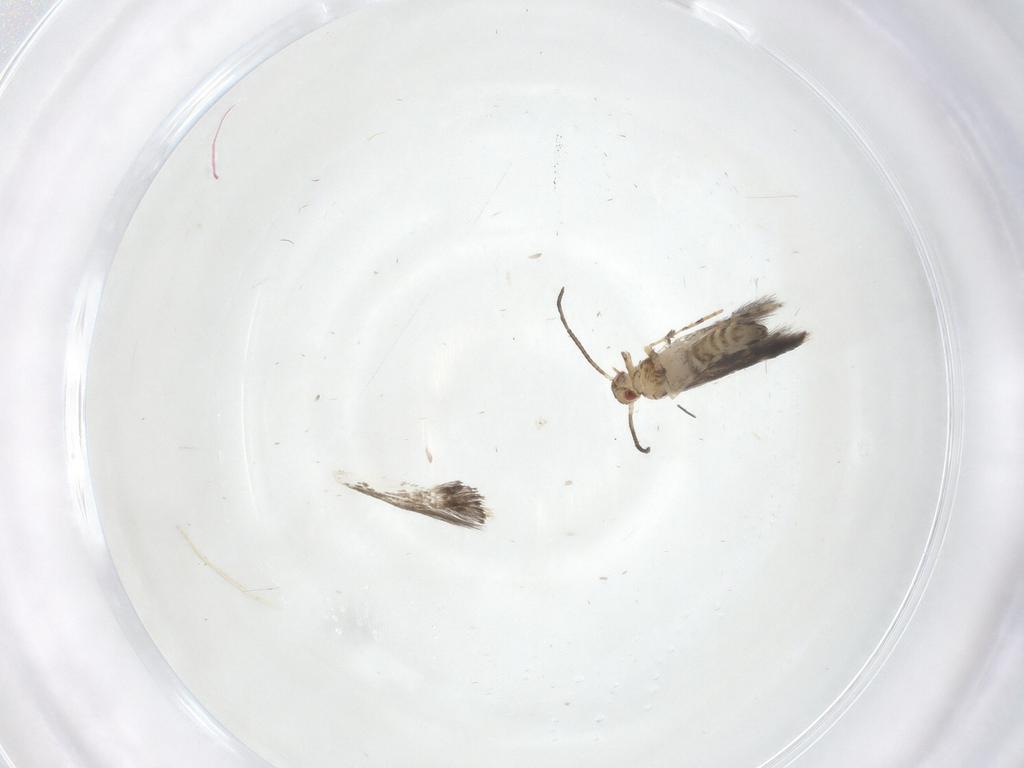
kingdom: Animalia
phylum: Arthropoda
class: Insecta
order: Lepidoptera
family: Gracillariidae
